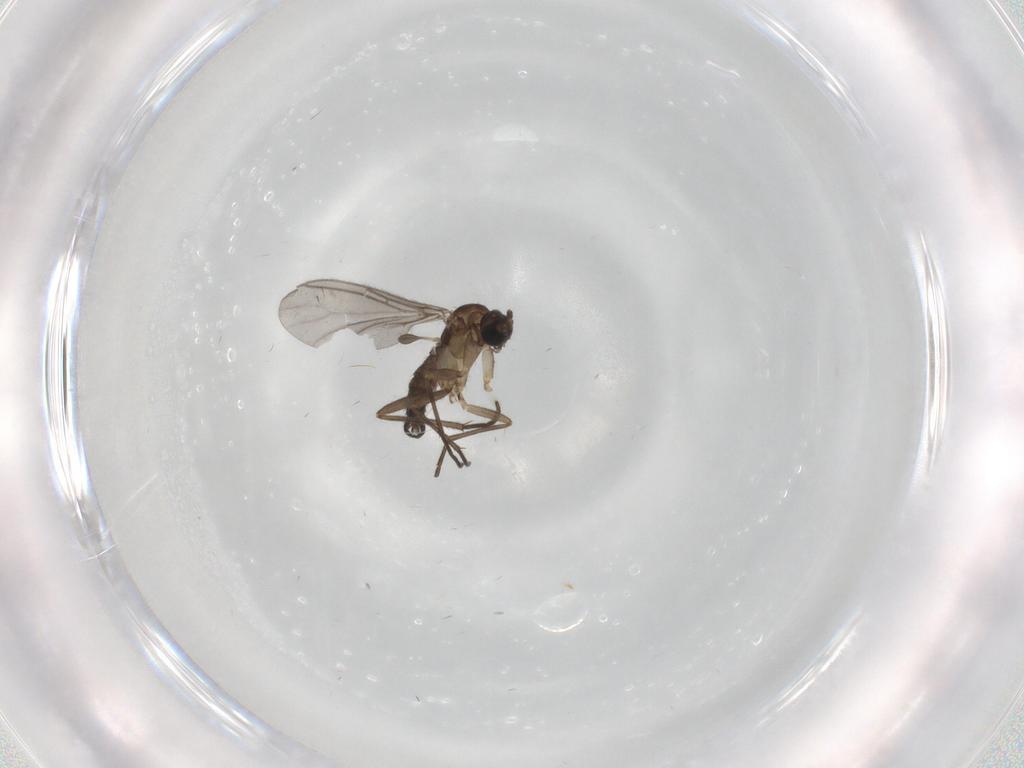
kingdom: Animalia
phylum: Arthropoda
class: Insecta
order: Diptera
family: Sciaridae
